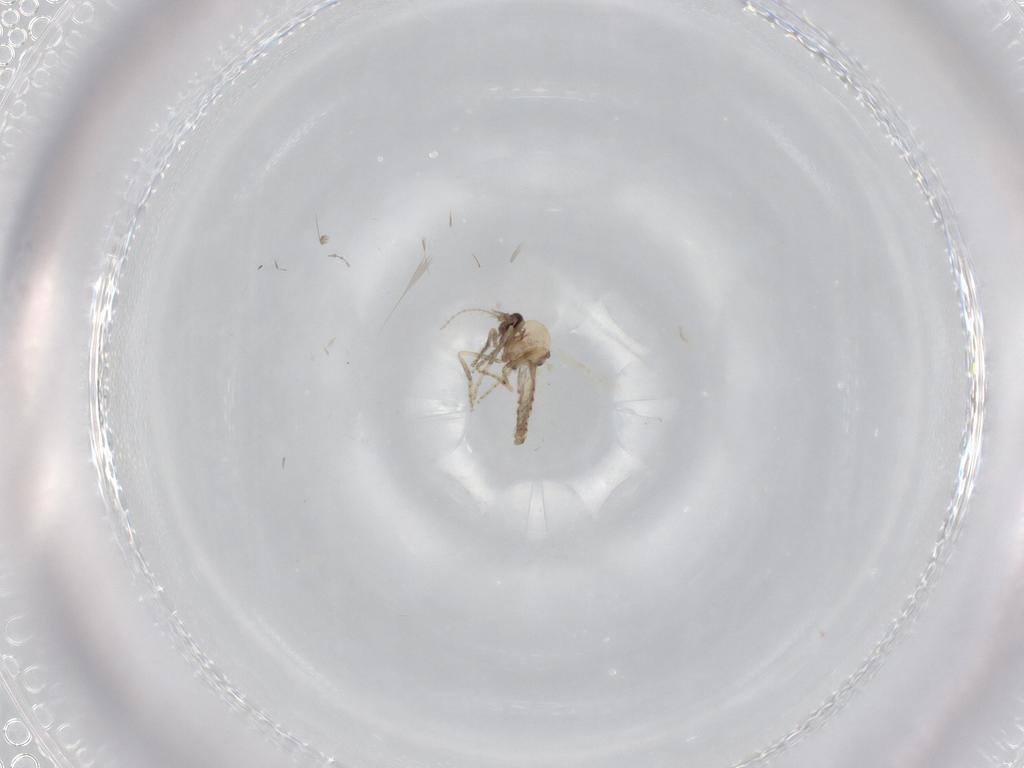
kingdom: Animalia
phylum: Arthropoda
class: Insecta
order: Diptera
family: Ceratopogonidae
